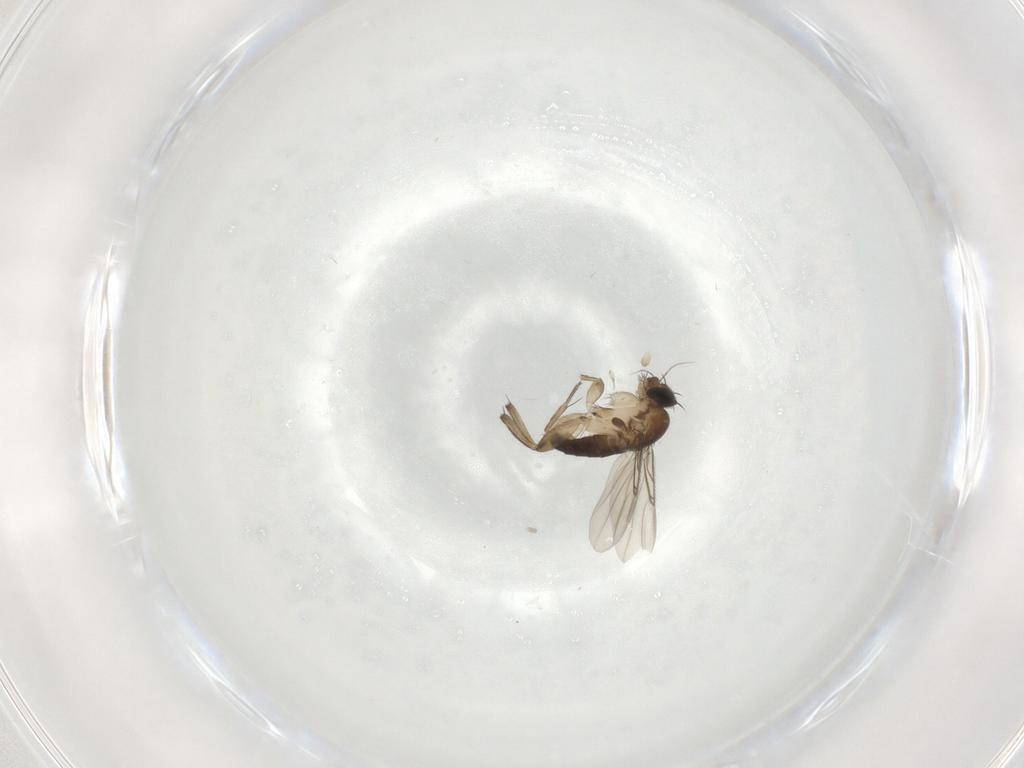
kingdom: Animalia
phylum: Arthropoda
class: Insecta
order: Diptera
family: Phoridae
